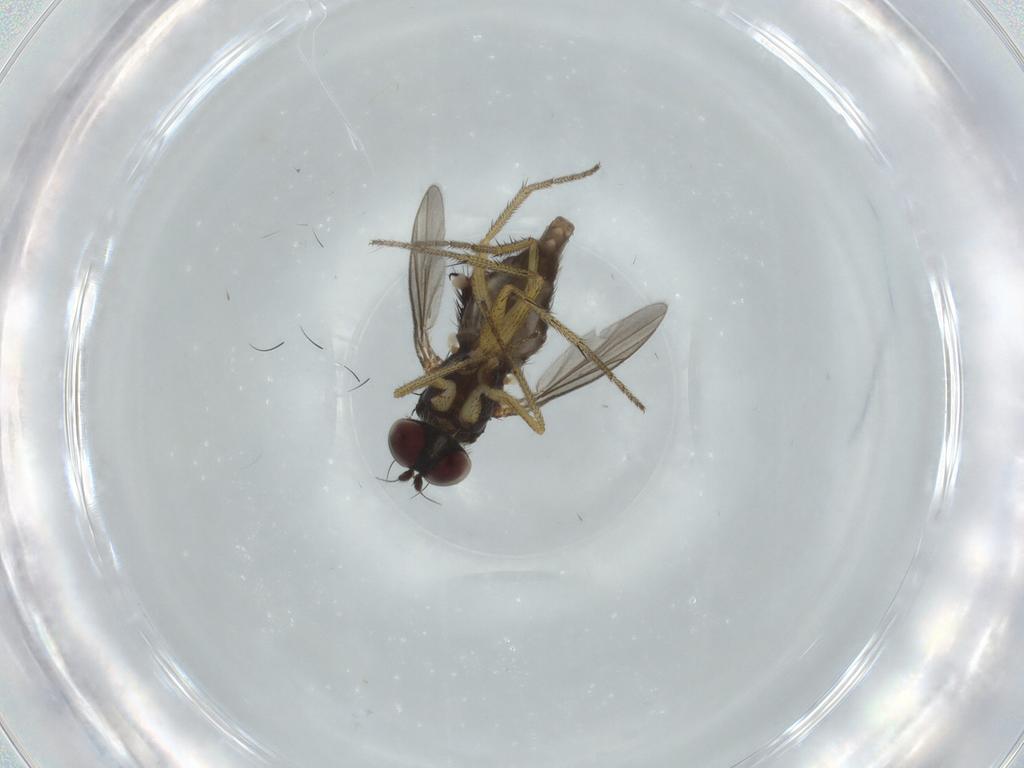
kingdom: Animalia
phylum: Arthropoda
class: Insecta
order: Diptera
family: Dolichopodidae
